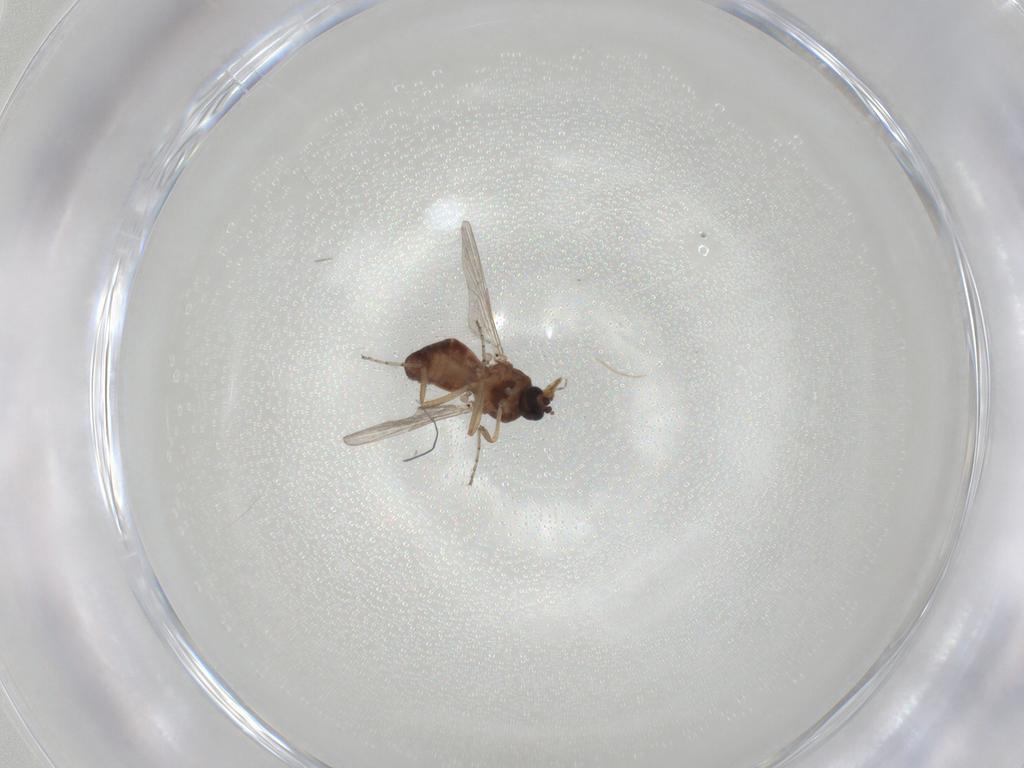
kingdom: Animalia
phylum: Arthropoda
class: Insecta
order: Diptera
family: Ceratopogonidae
